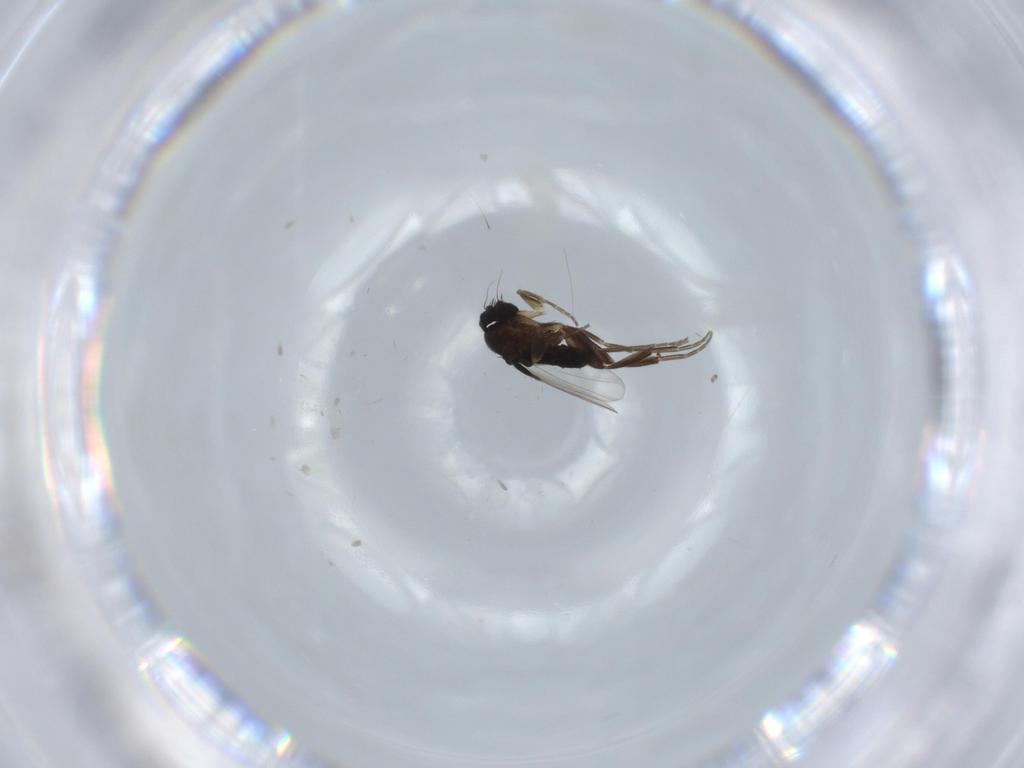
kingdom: Animalia
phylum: Arthropoda
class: Insecta
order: Diptera
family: Phoridae
